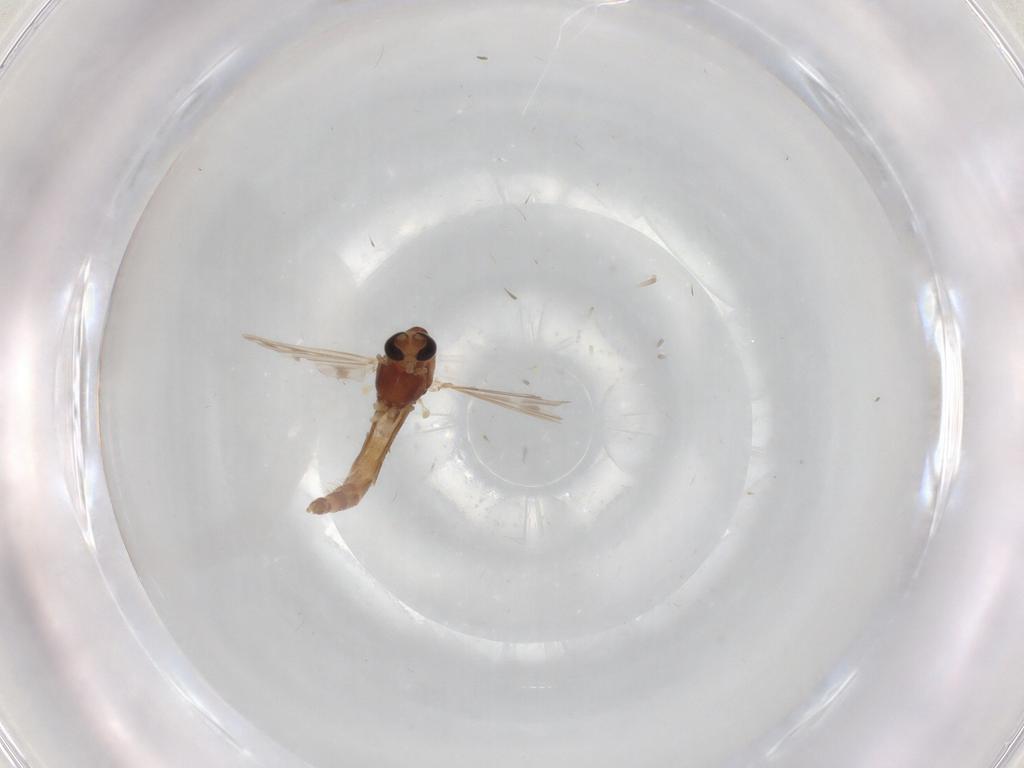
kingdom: Animalia
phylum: Arthropoda
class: Insecta
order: Diptera
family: Chironomidae
